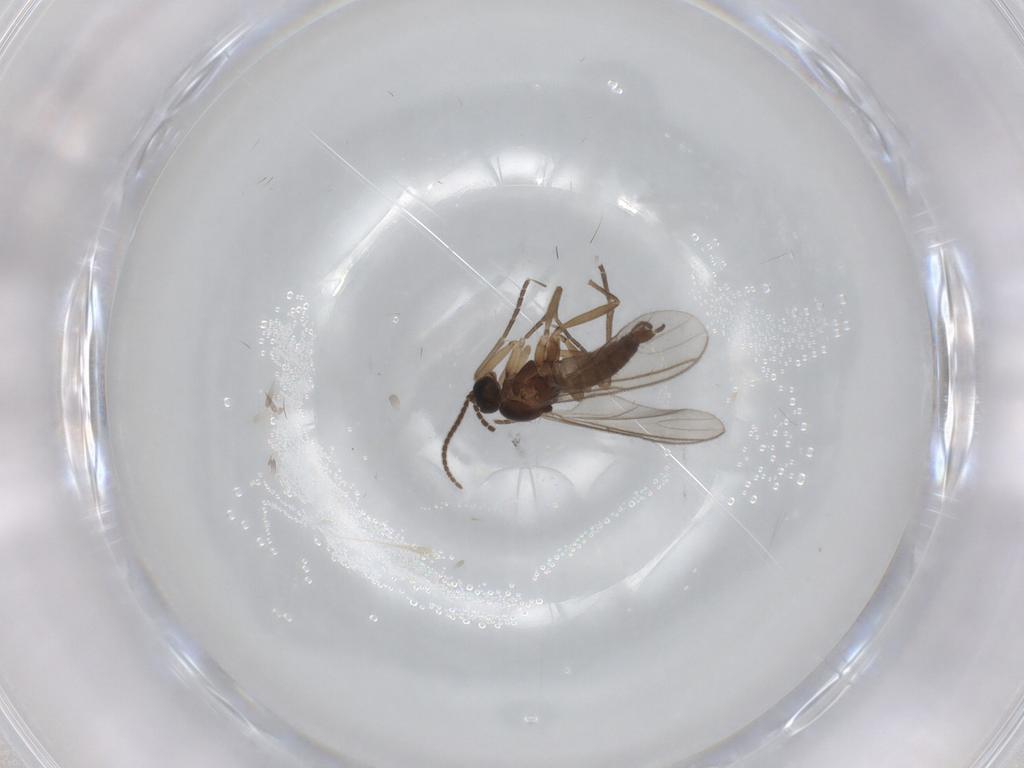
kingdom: Animalia
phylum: Arthropoda
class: Insecta
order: Diptera
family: Sciaridae
